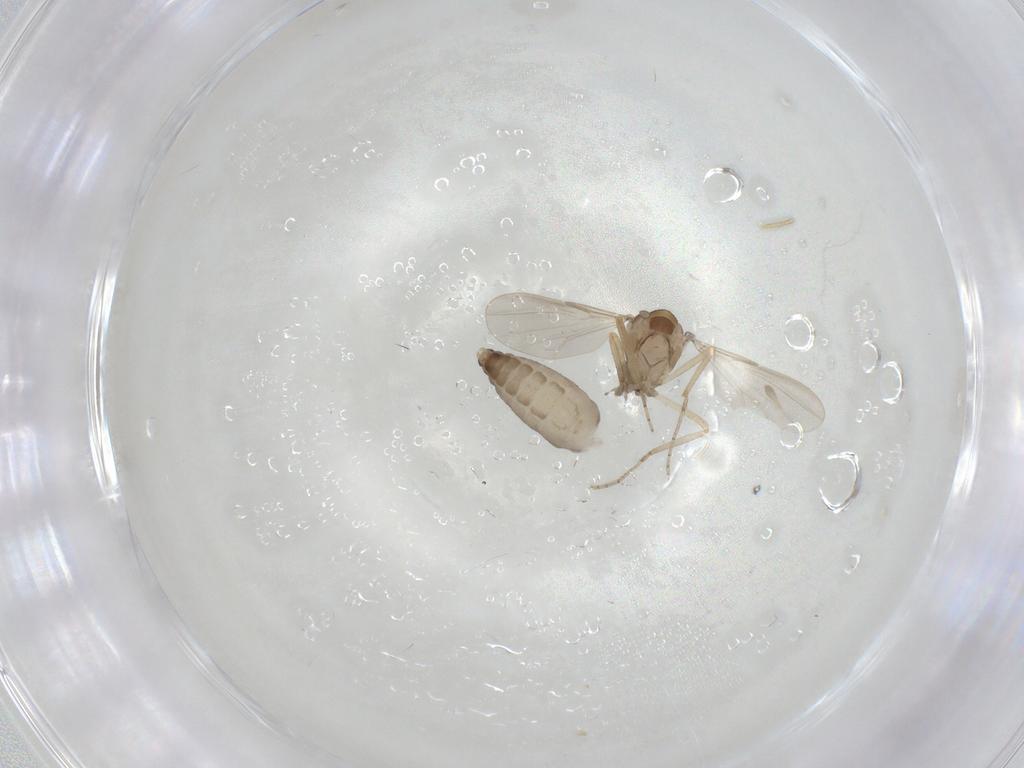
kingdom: Animalia
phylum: Arthropoda
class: Insecta
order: Diptera
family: Ceratopogonidae
